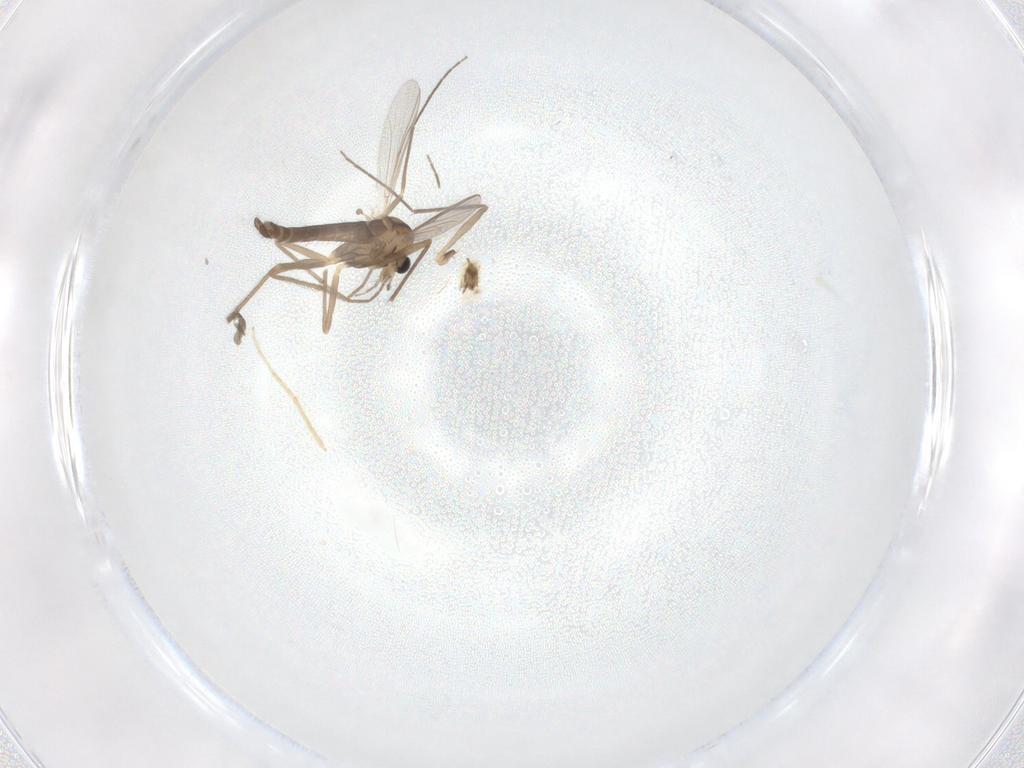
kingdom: Animalia
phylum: Arthropoda
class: Insecta
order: Diptera
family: Chironomidae
